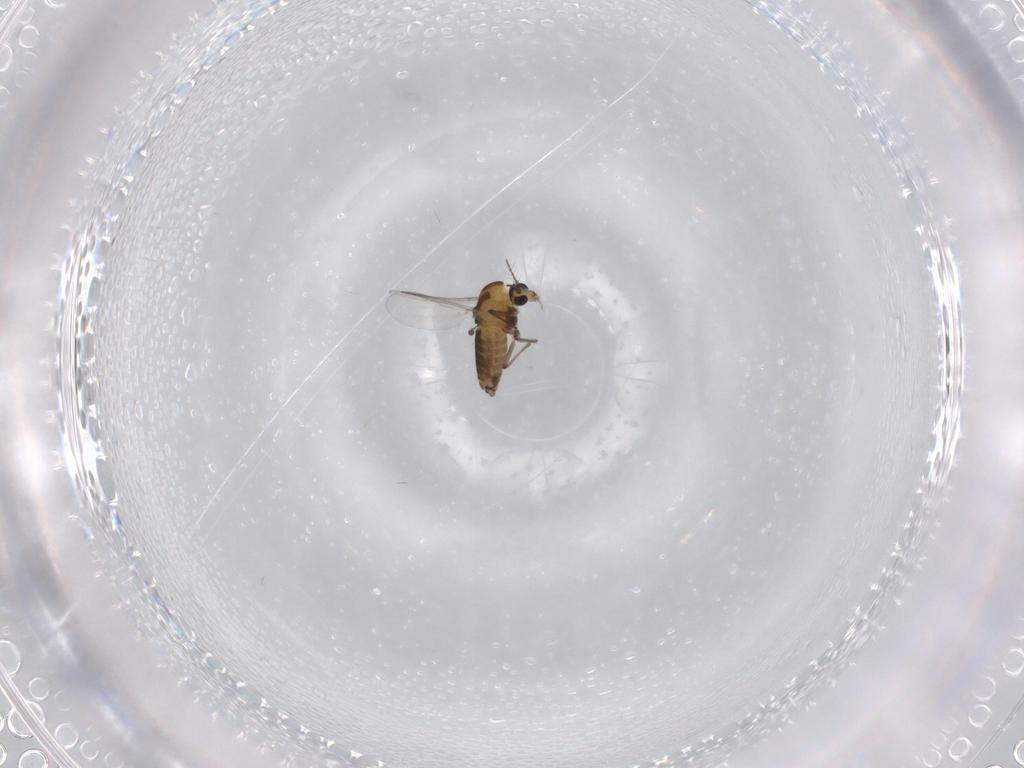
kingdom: Animalia
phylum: Arthropoda
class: Insecta
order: Diptera
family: Chironomidae
